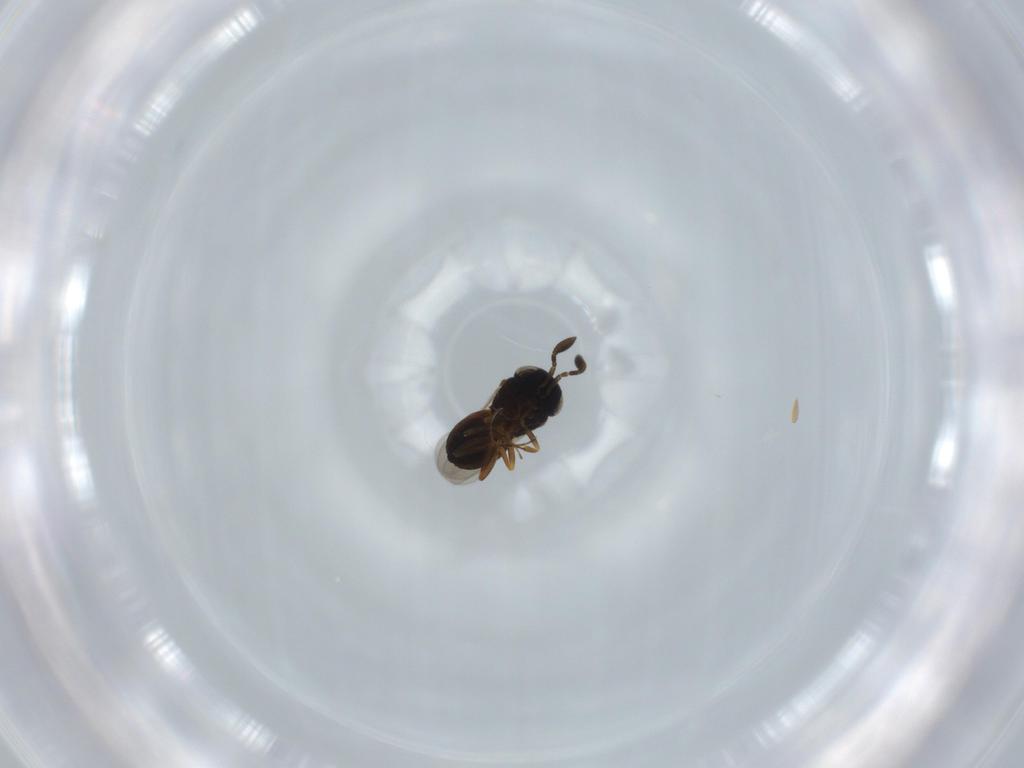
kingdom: Animalia
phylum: Arthropoda
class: Insecta
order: Hymenoptera
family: Scelionidae
